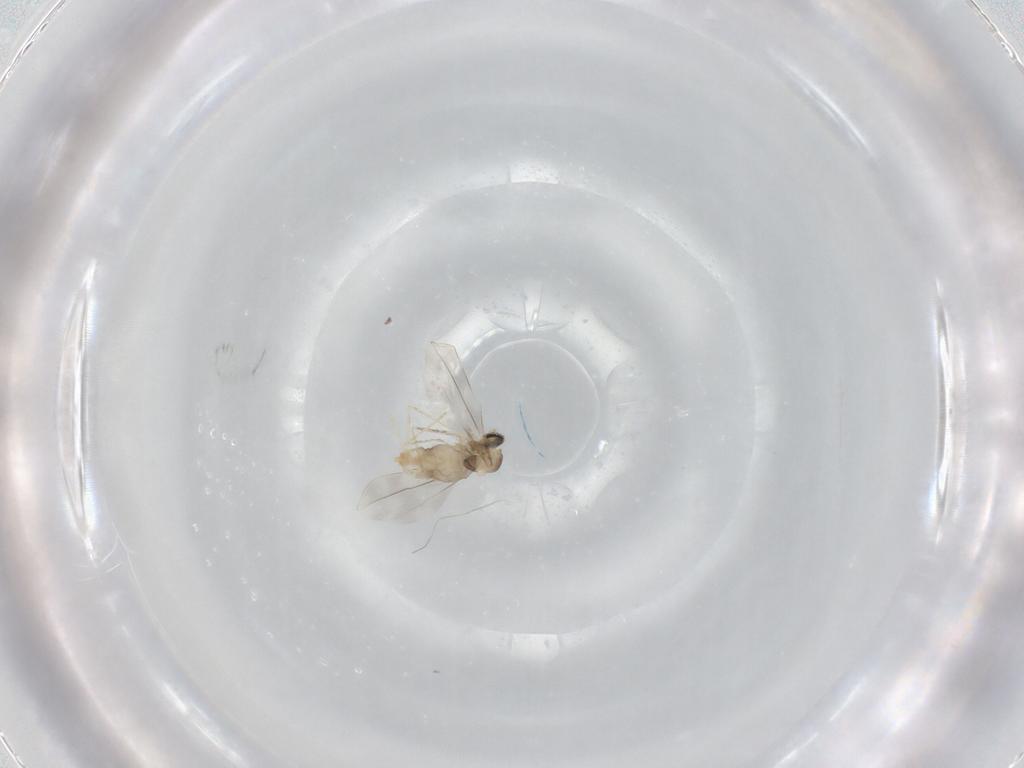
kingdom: Animalia
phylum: Arthropoda
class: Insecta
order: Diptera
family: Cecidomyiidae
